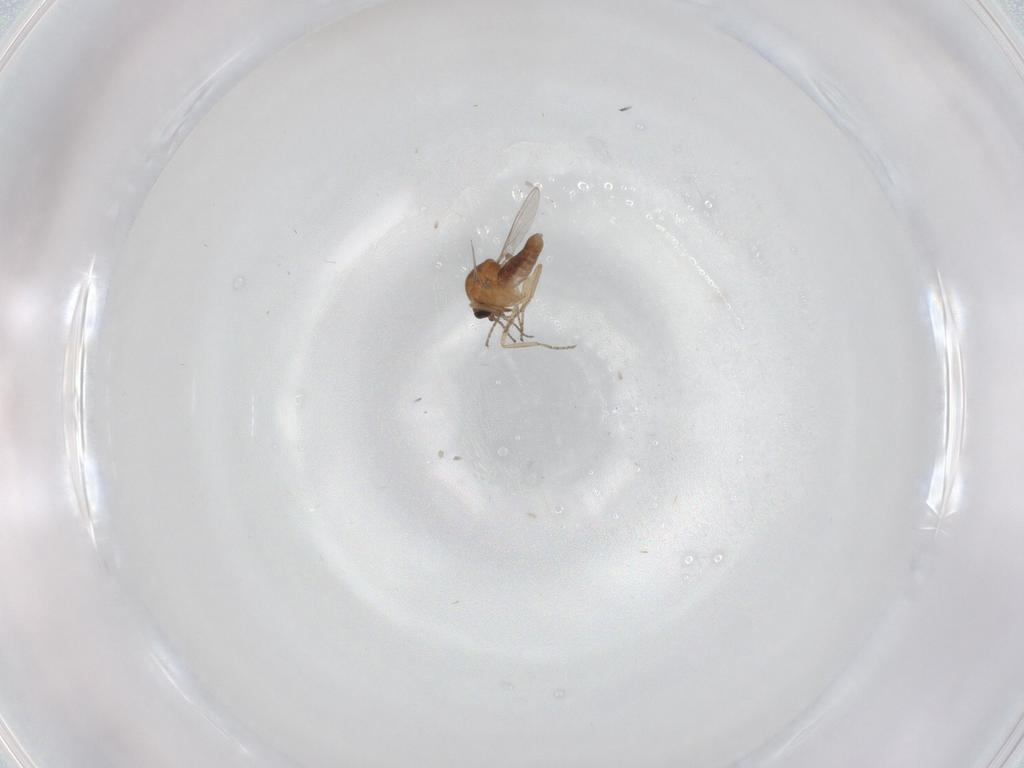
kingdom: Animalia
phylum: Arthropoda
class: Insecta
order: Diptera
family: Ceratopogonidae
